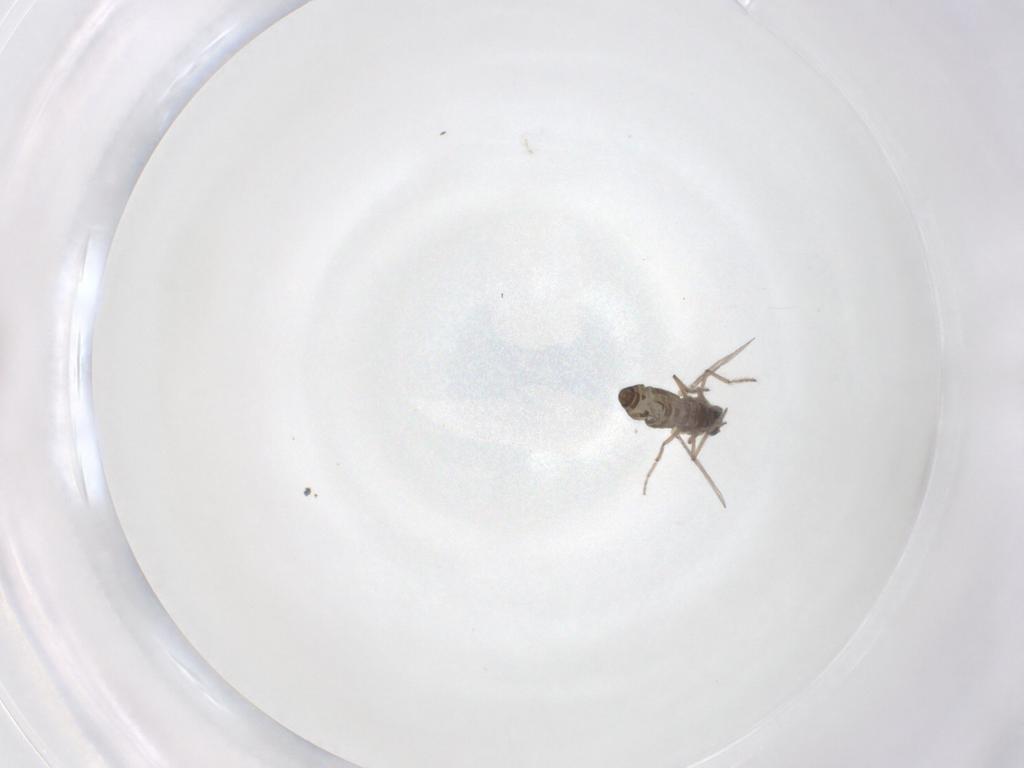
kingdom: Animalia
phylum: Arthropoda
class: Insecta
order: Diptera
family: Ceratopogonidae
